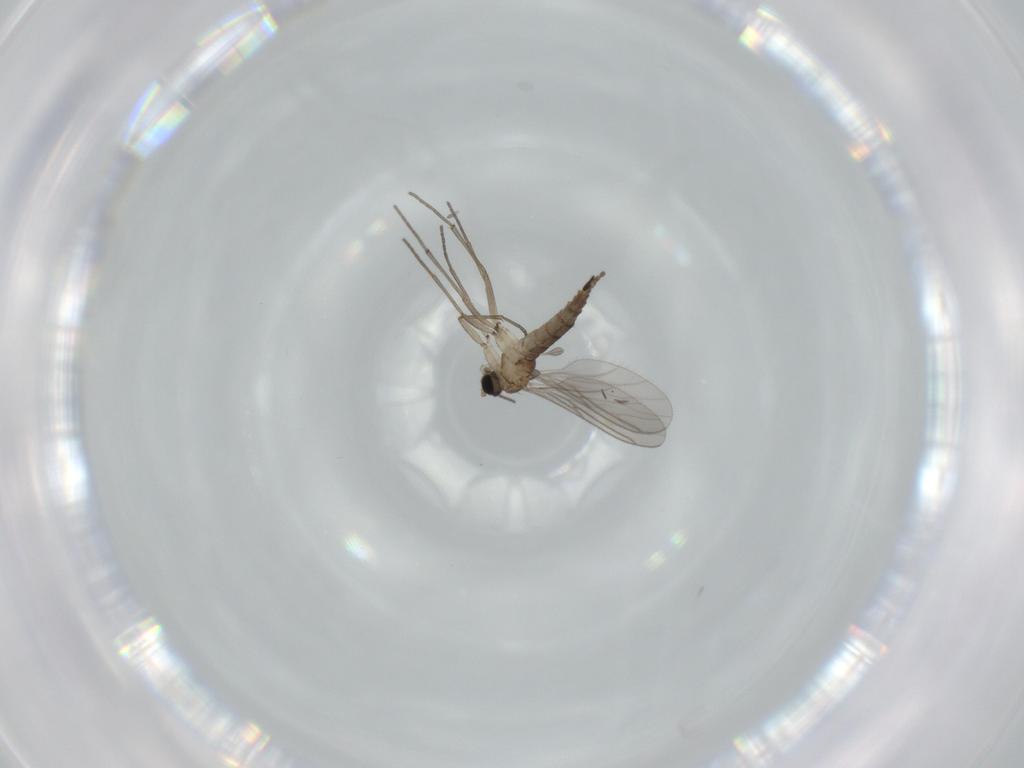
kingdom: Animalia
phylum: Arthropoda
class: Insecta
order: Diptera
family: Cecidomyiidae
